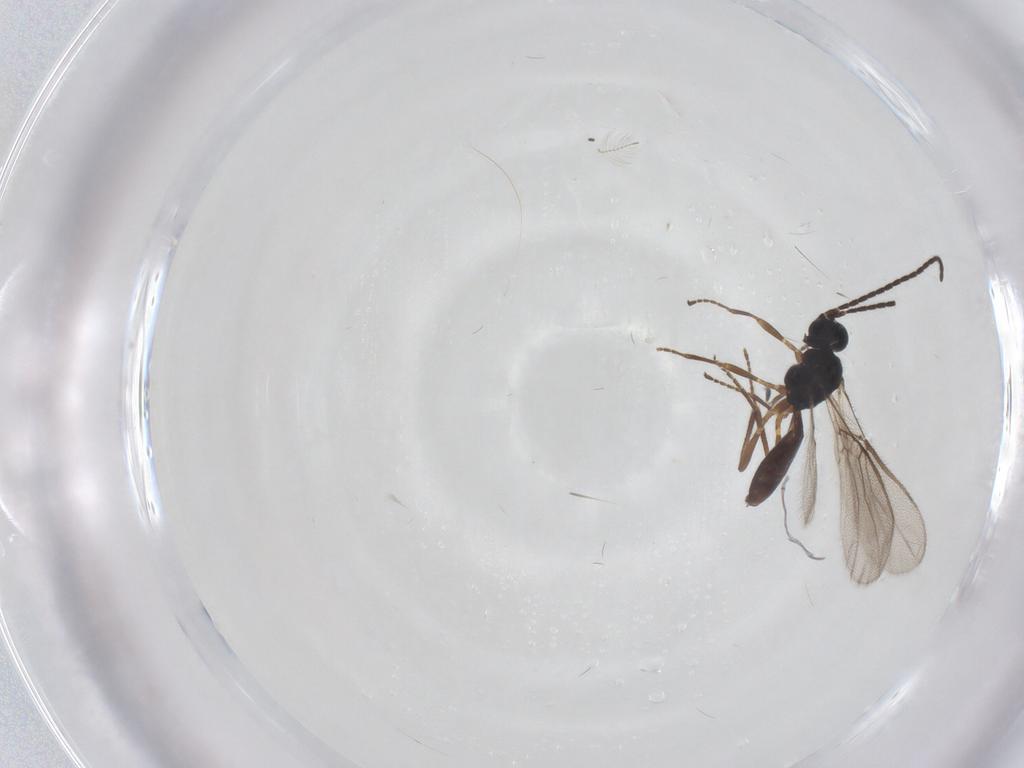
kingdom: Animalia
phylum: Arthropoda
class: Insecta
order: Hymenoptera
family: Braconidae
